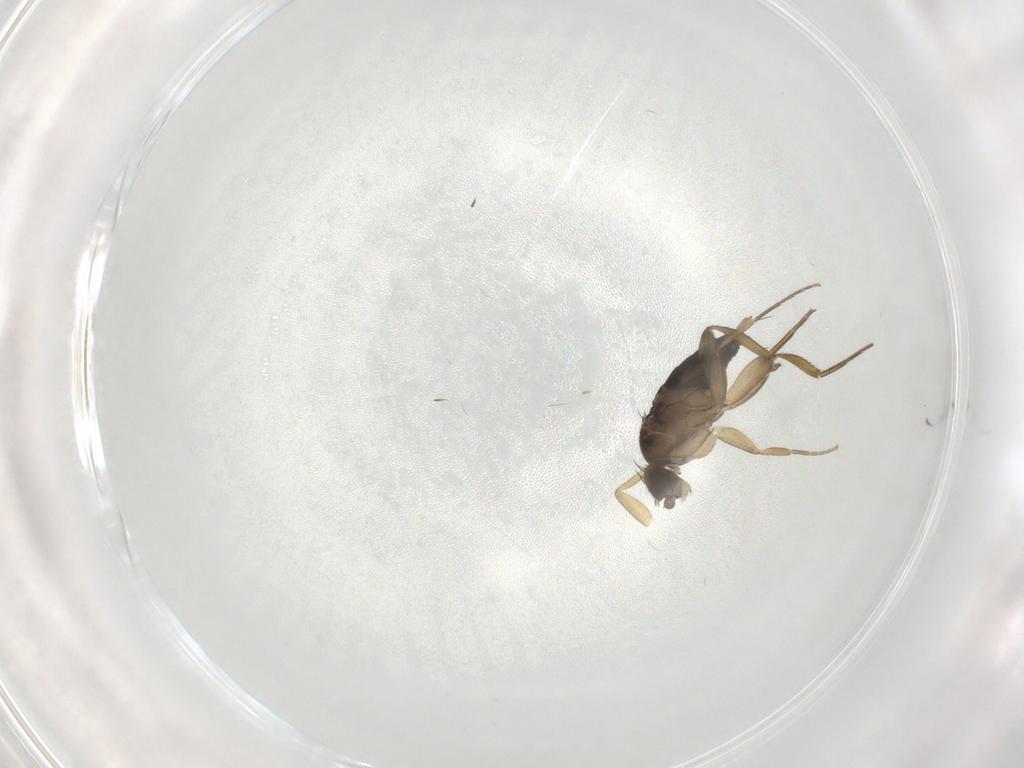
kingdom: Animalia
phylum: Arthropoda
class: Insecta
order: Diptera
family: Phoridae
